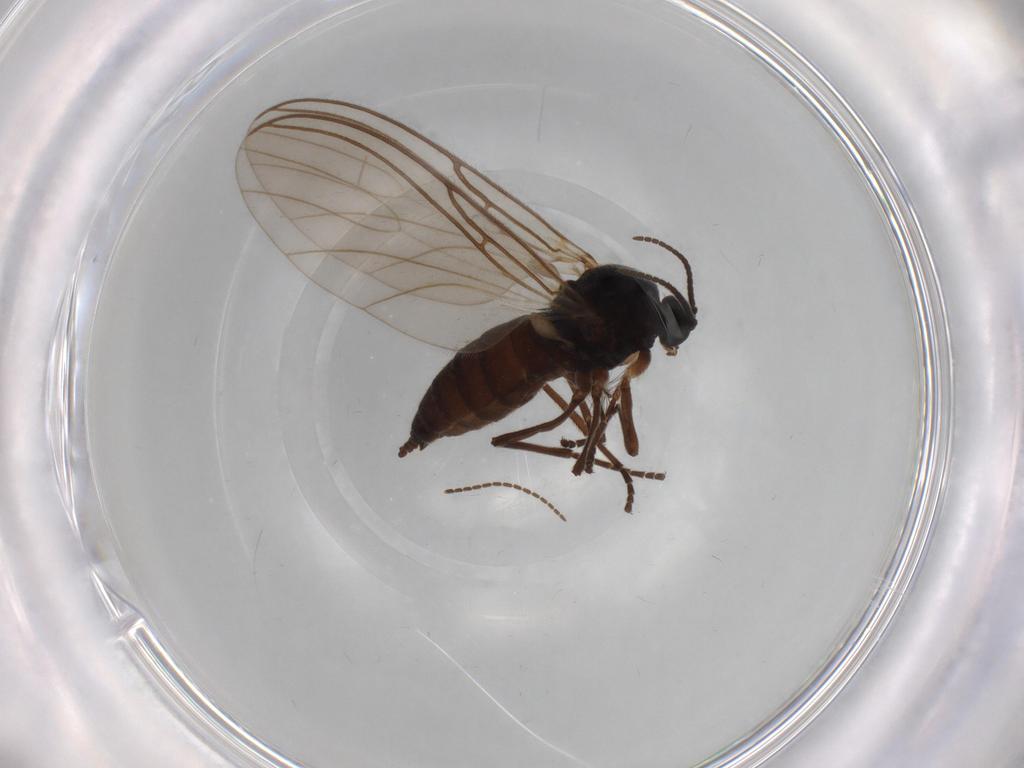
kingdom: Animalia
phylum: Arthropoda
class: Insecta
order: Diptera
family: Sciaridae
